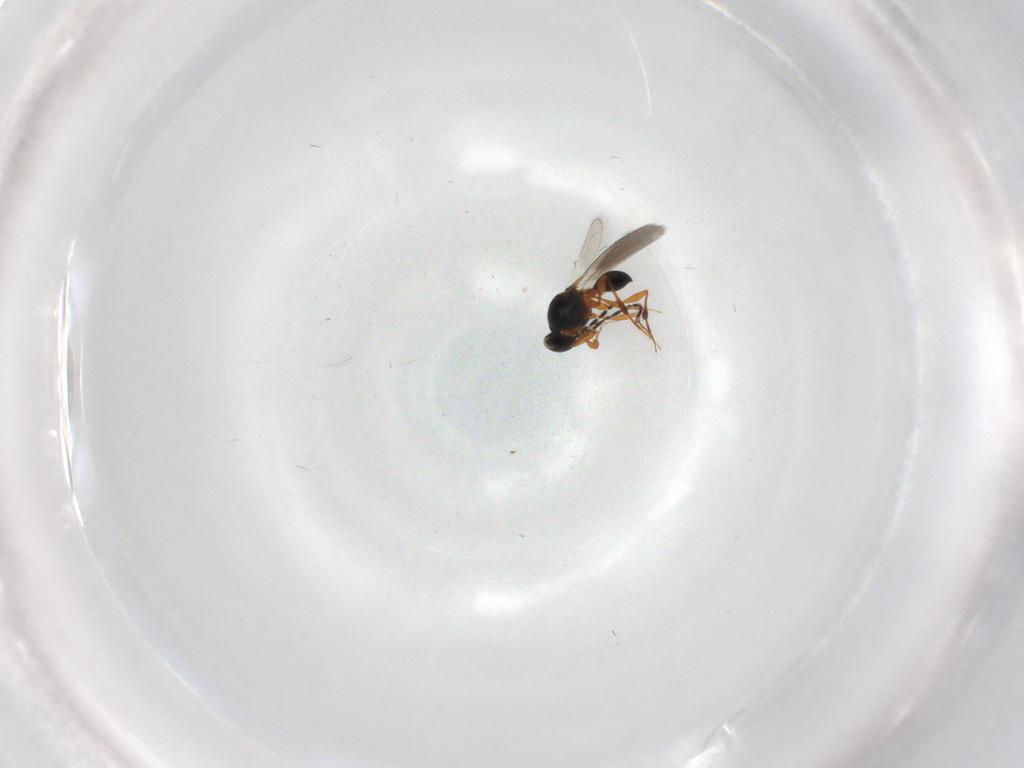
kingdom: Animalia
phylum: Arthropoda
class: Insecta
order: Hymenoptera
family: Platygastridae
